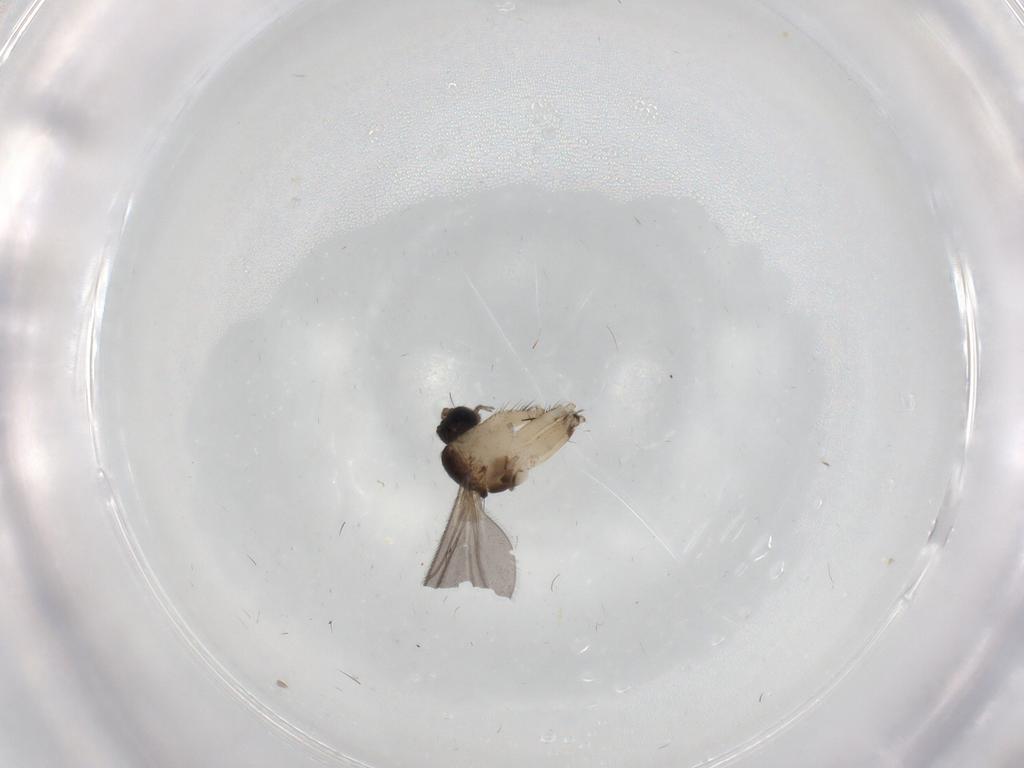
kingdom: Animalia
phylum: Arthropoda
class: Insecta
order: Diptera
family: Sciaridae
